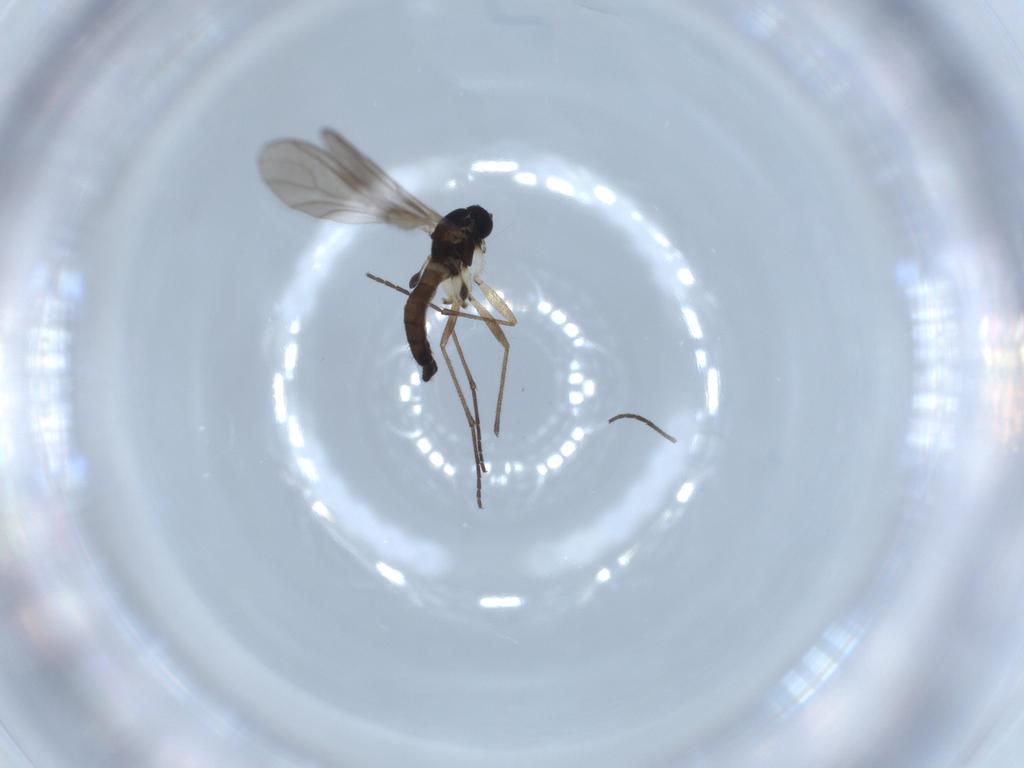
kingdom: Animalia
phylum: Arthropoda
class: Insecta
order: Diptera
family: Sciaridae
